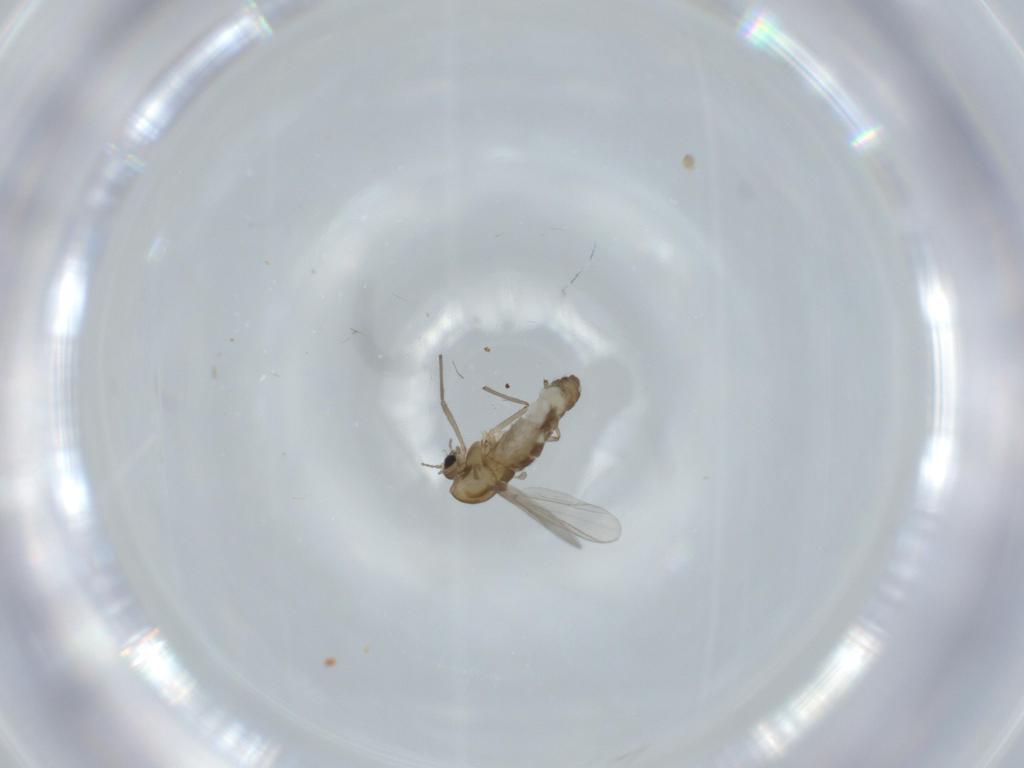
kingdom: Animalia
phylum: Arthropoda
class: Insecta
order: Diptera
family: Chironomidae
